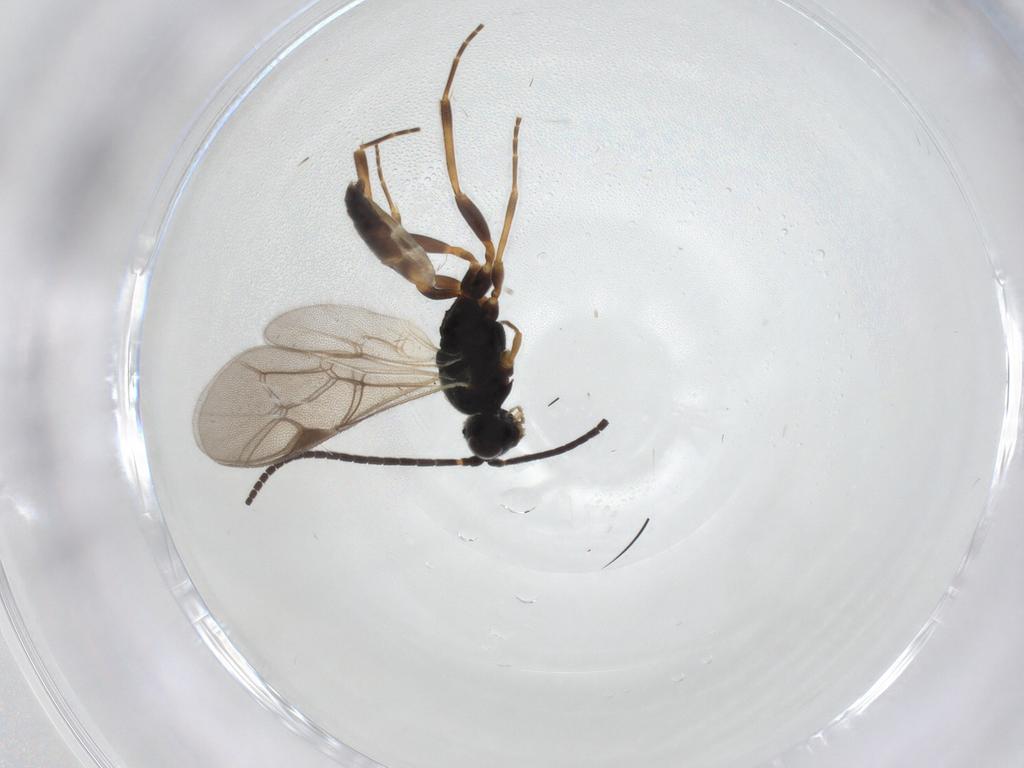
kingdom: Animalia
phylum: Arthropoda
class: Insecta
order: Hymenoptera
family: Ichneumonidae
